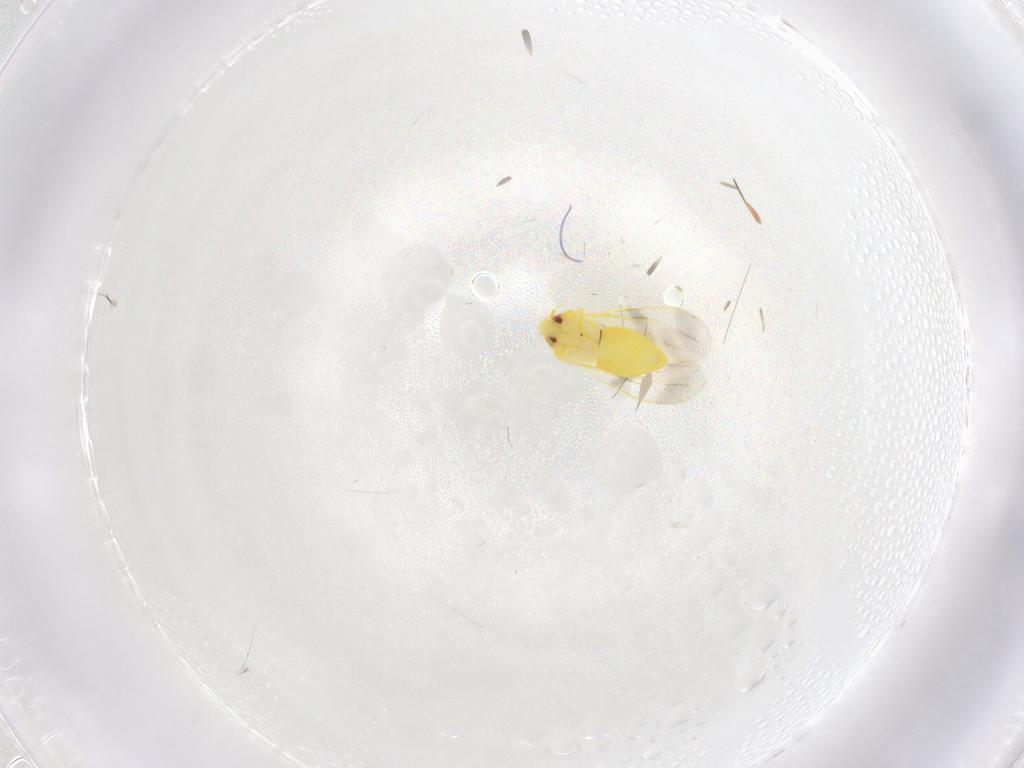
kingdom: Animalia
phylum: Arthropoda
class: Insecta
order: Hemiptera
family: Aleyrodidae
